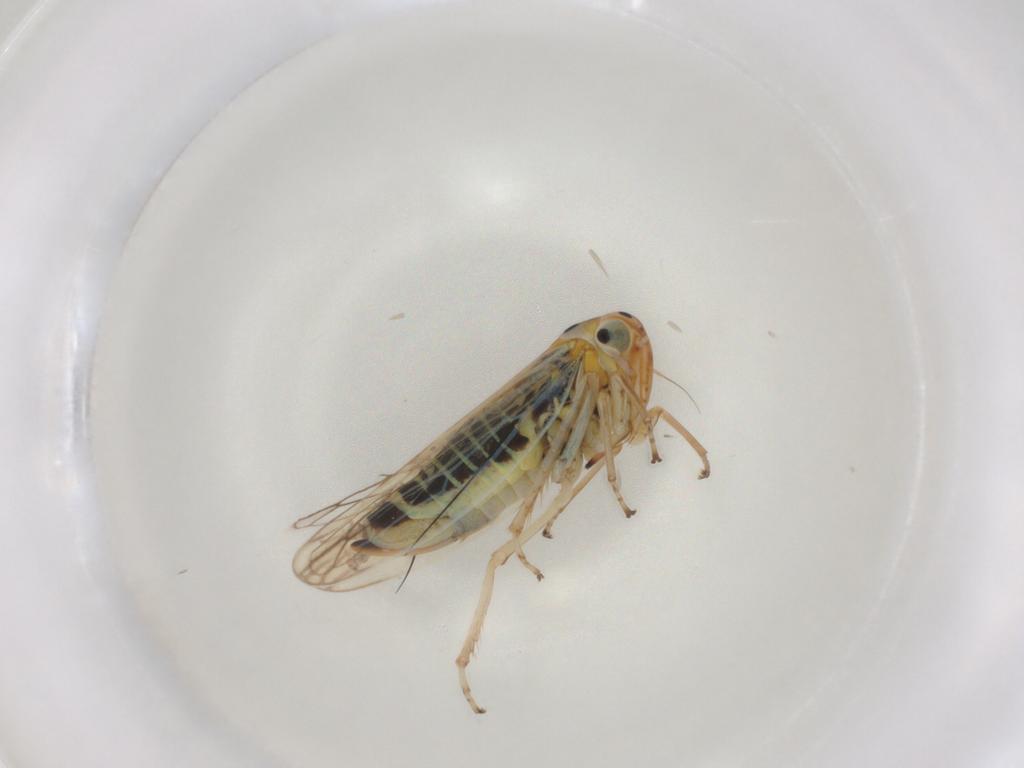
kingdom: Animalia
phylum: Arthropoda
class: Insecta
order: Hemiptera
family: Cicadellidae
